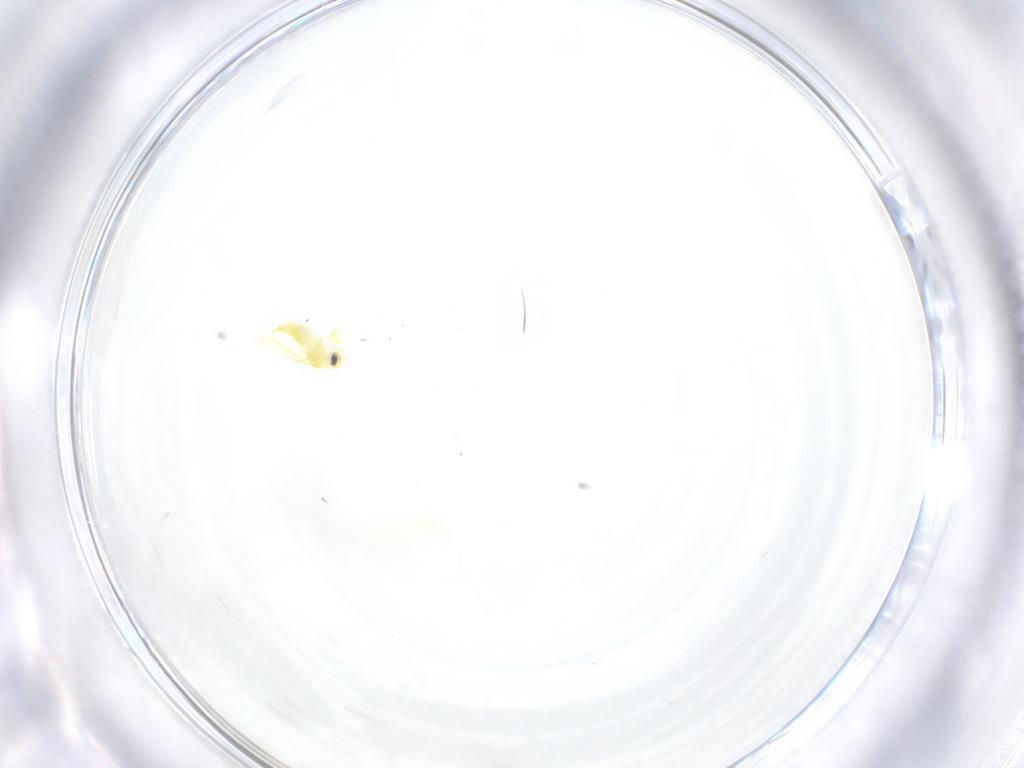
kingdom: Animalia
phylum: Arthropoda
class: Insecta
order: Hemiptera
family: Aleyrodidae
